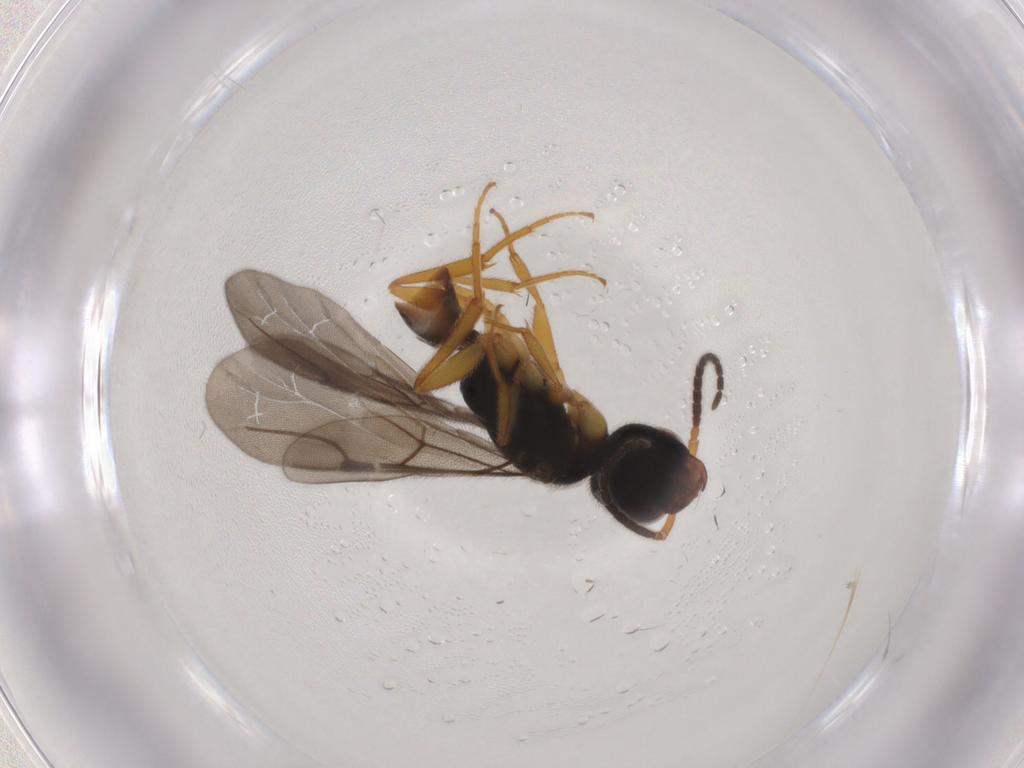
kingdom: Animalia
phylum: Arthropoda
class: Insecta
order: Hymenoptera
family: Bethylidae
